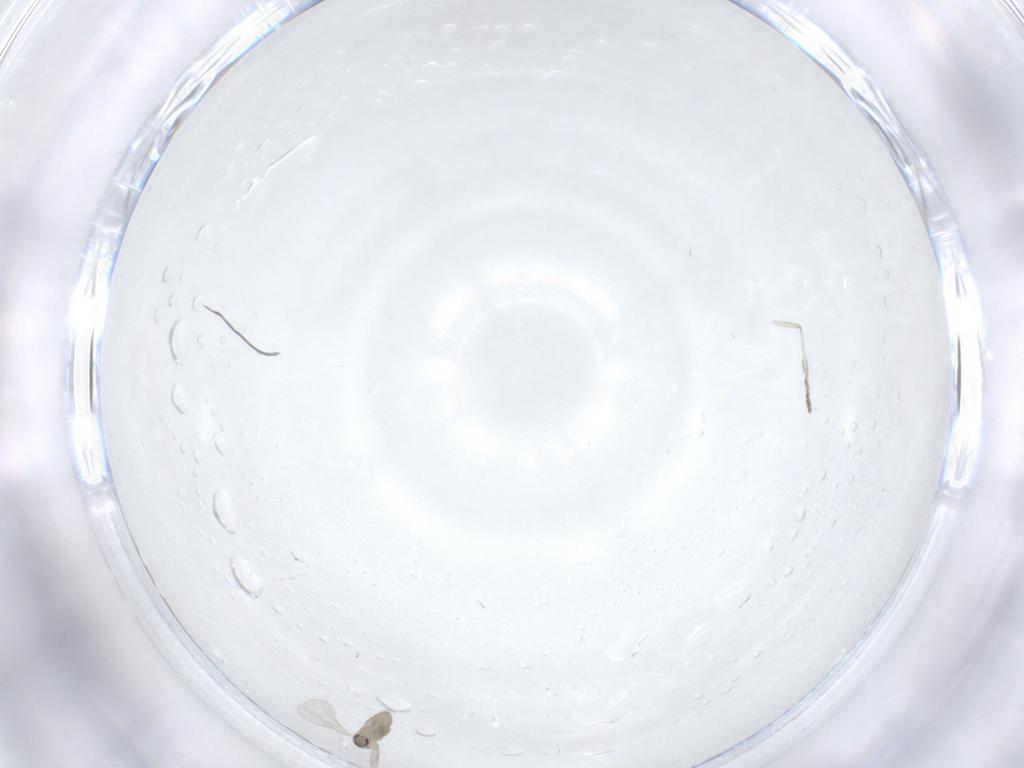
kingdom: Animalia
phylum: Arthropoda
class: Insecta
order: Diptera
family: Cecidomyiidae
